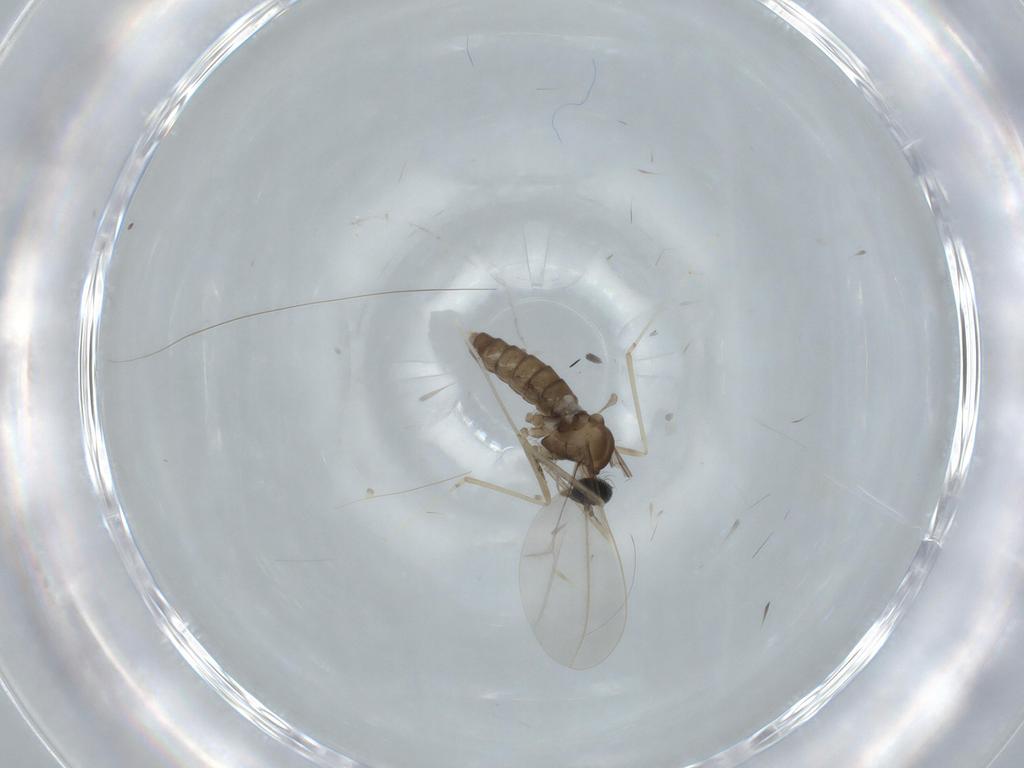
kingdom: Animalia
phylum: Arthropoda
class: Insecta
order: Diptera
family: Cecidomyiidae
